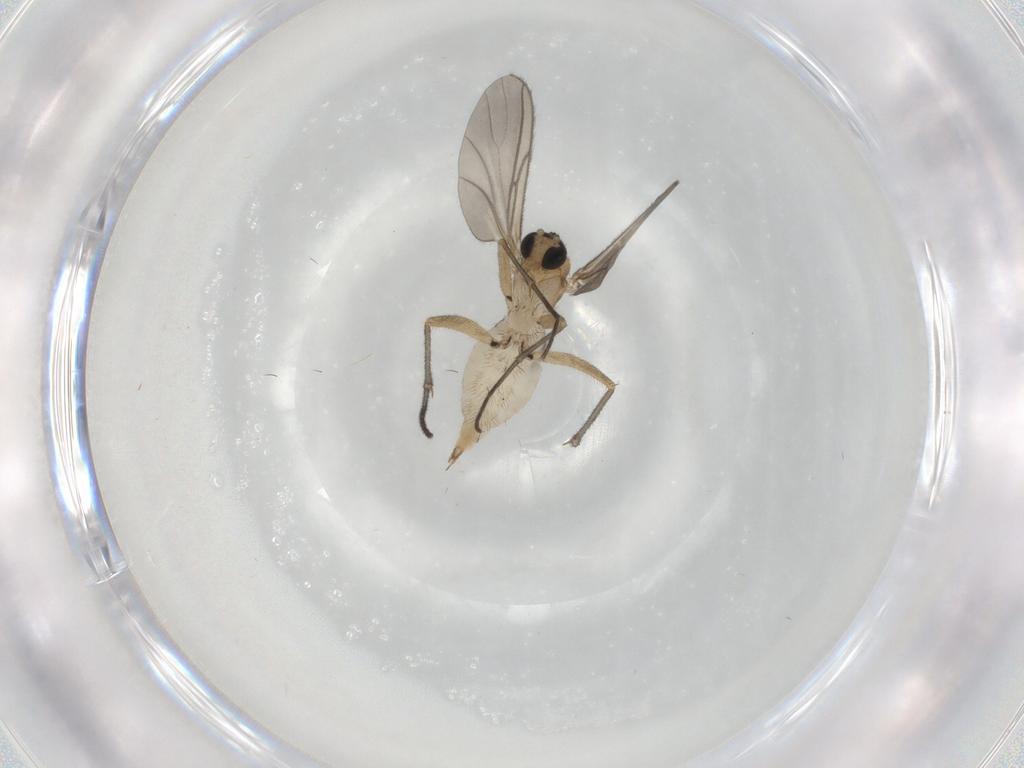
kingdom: Animalia
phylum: Arthropoda
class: Insecta
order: Diptera
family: Sciaridae
